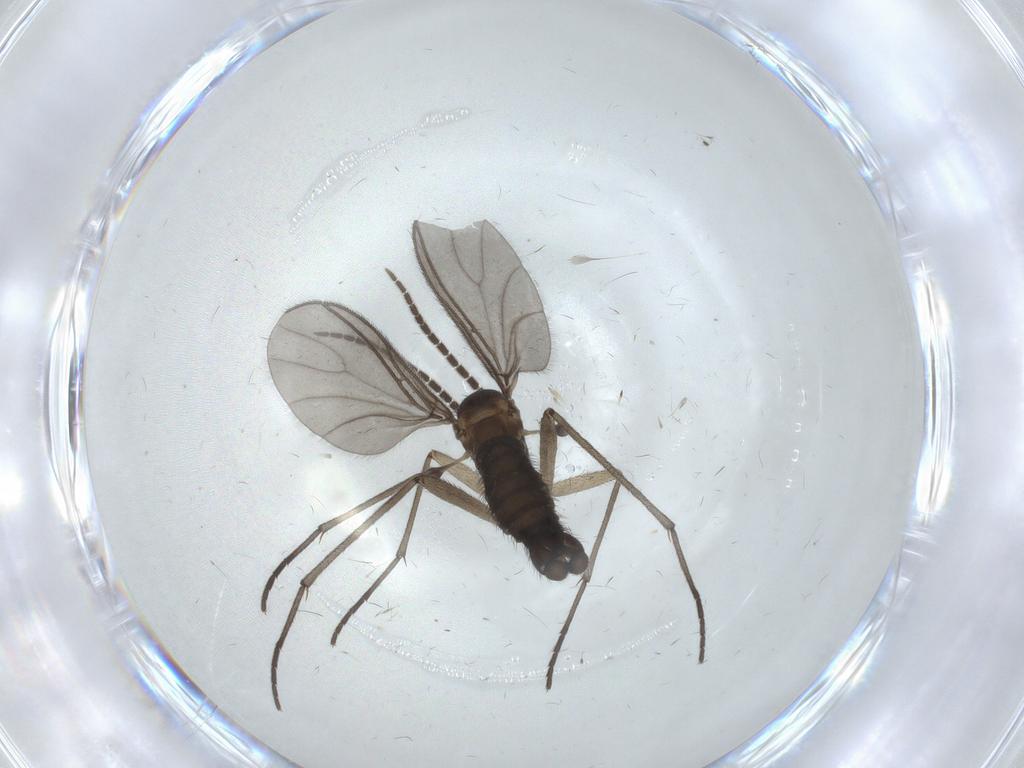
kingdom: Animalia
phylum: Arthropoda
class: Insecta
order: Diptera
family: Sciaridae
